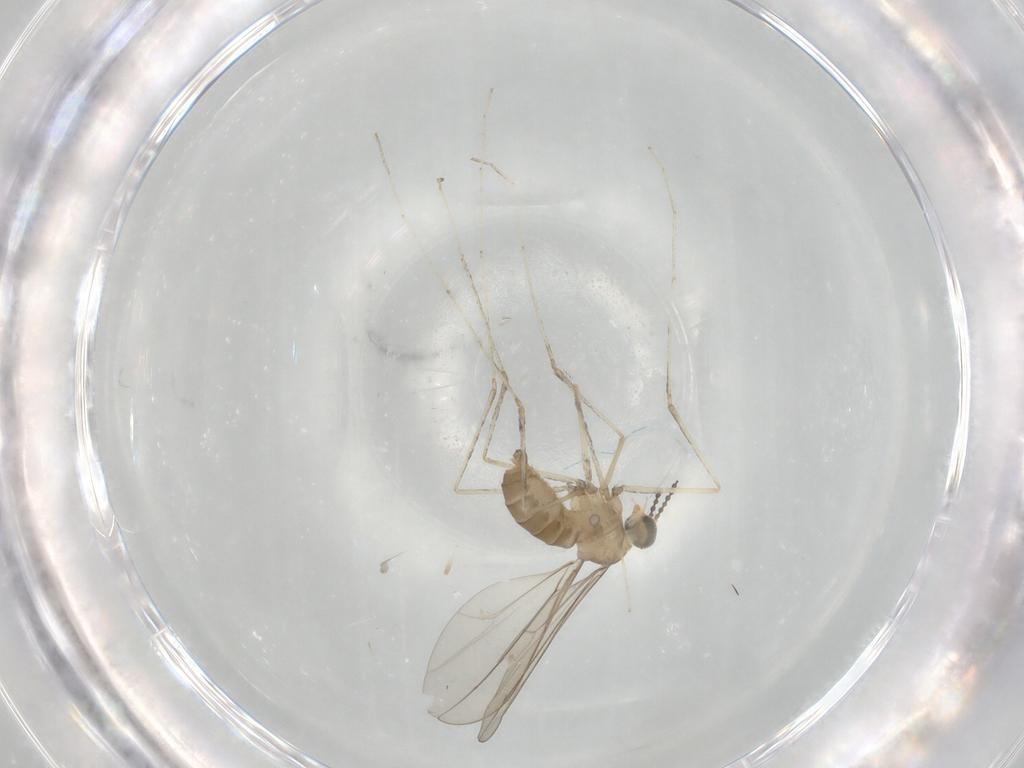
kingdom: Animalia
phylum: Arthropoda
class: Insecta
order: Diptera
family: Cecidomyiidae
